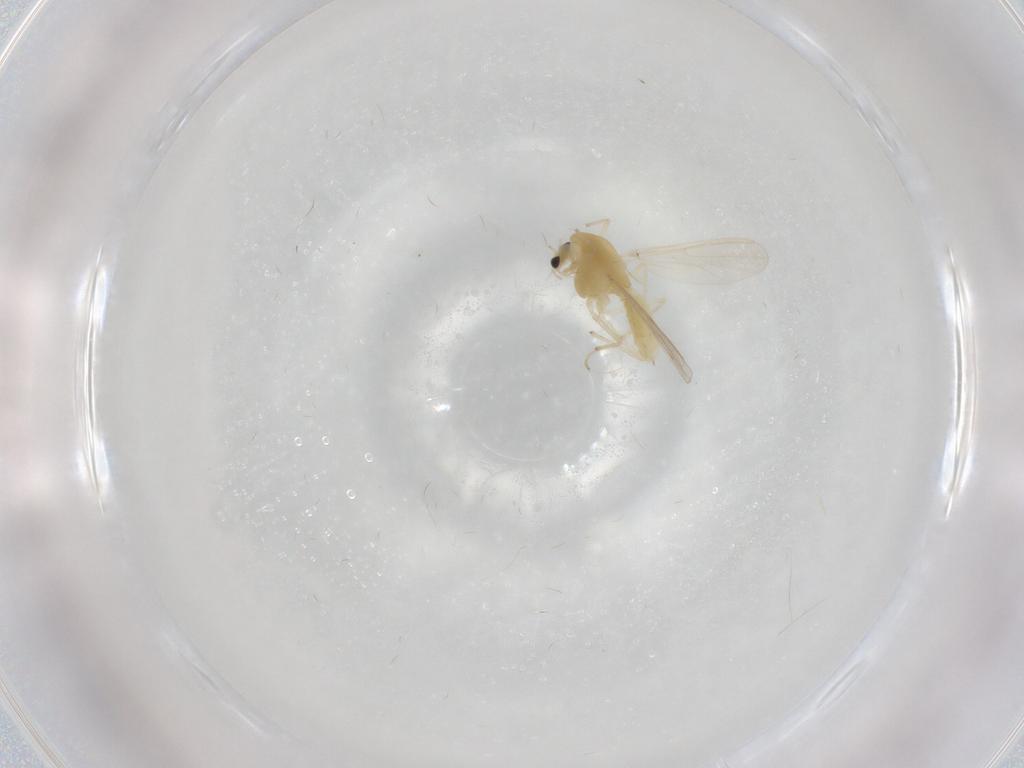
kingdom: Animalia
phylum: Arthropoda
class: Insecta
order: Diptera
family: Chironomidae
